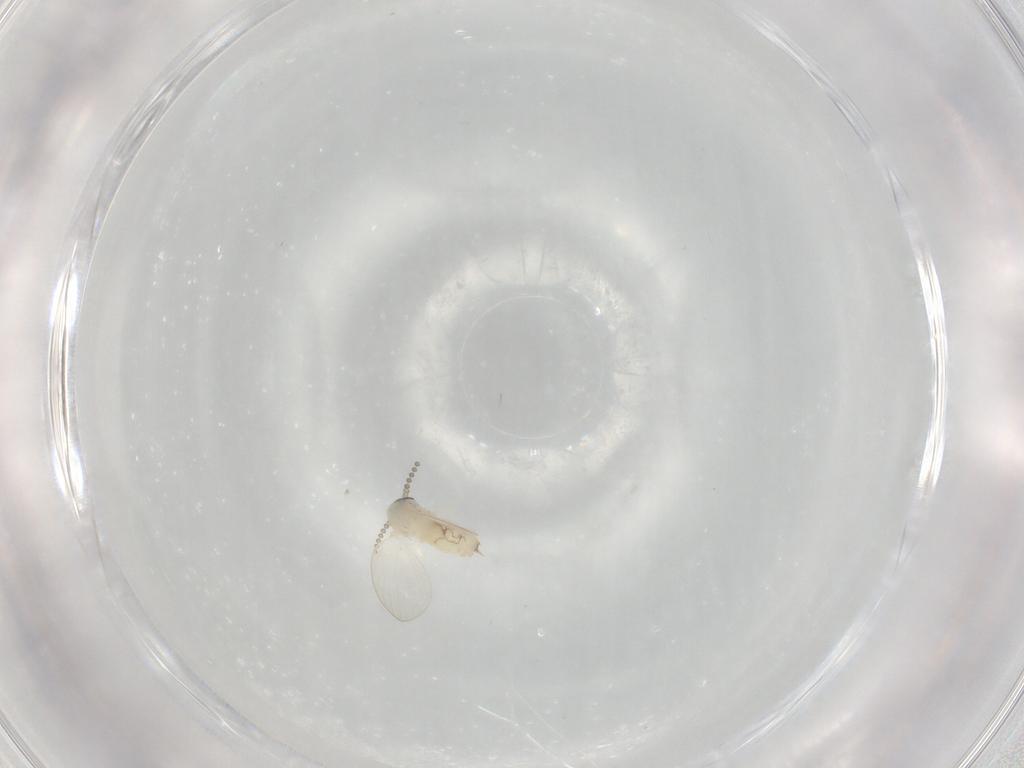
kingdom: Animalia
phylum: Arthropoda
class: Insecta
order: Diptera
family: Psychodidae
